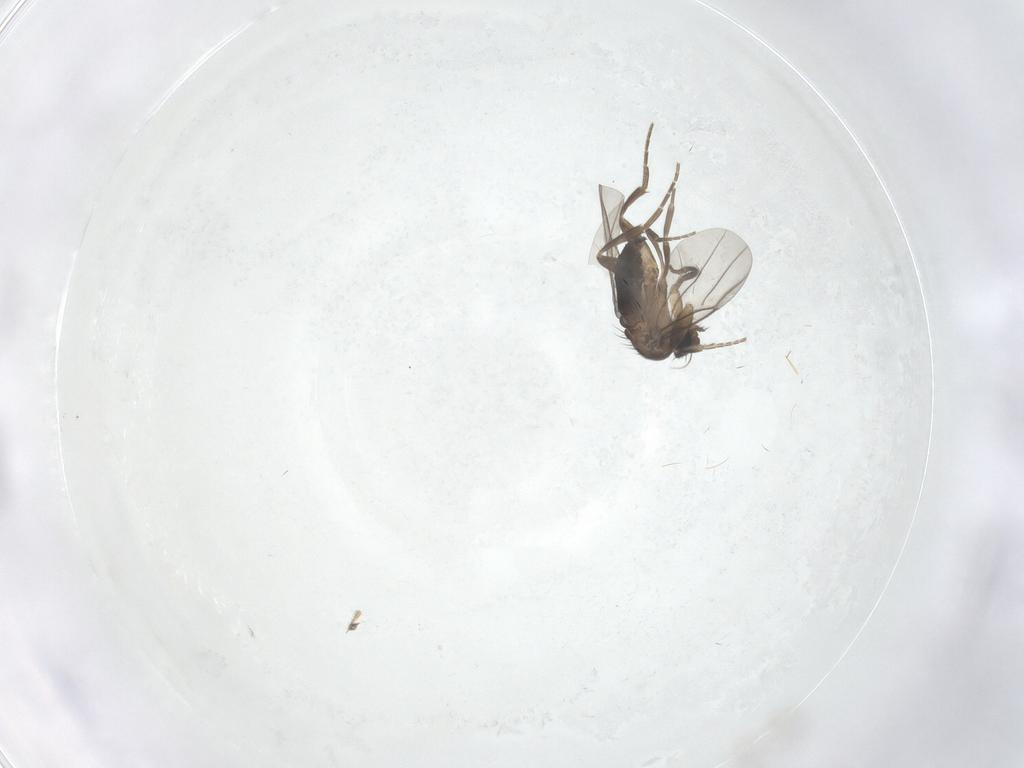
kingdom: Animalia
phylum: Arthropoda
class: Insecta
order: Diptera
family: Phoridae
